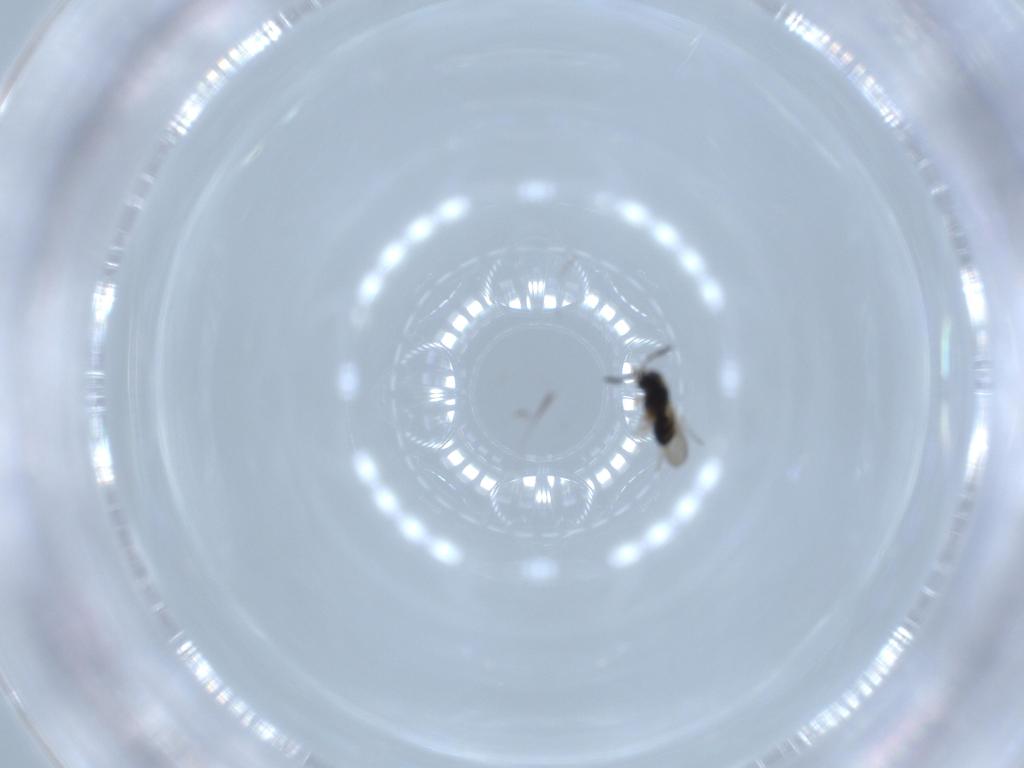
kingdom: Animalia
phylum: Arthropoda
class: Insecta
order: Hymenoptera
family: Scelionidae
